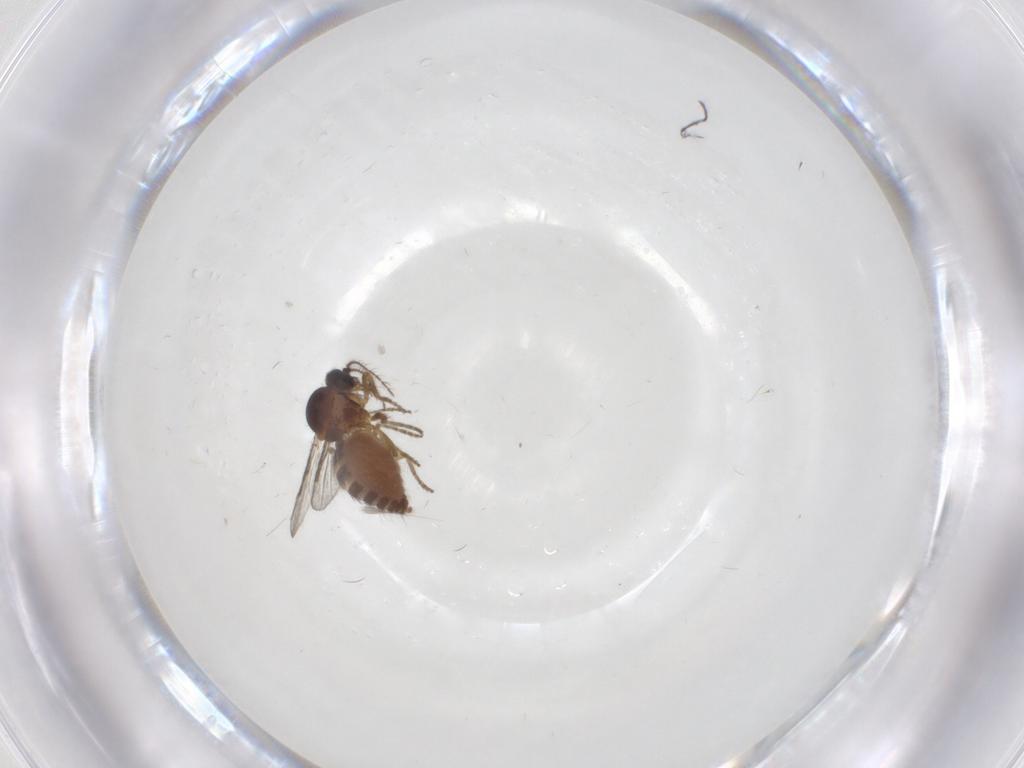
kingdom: Animalia
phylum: Arthropoda
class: Insecta
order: Diptera
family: Ceratopogonidae
